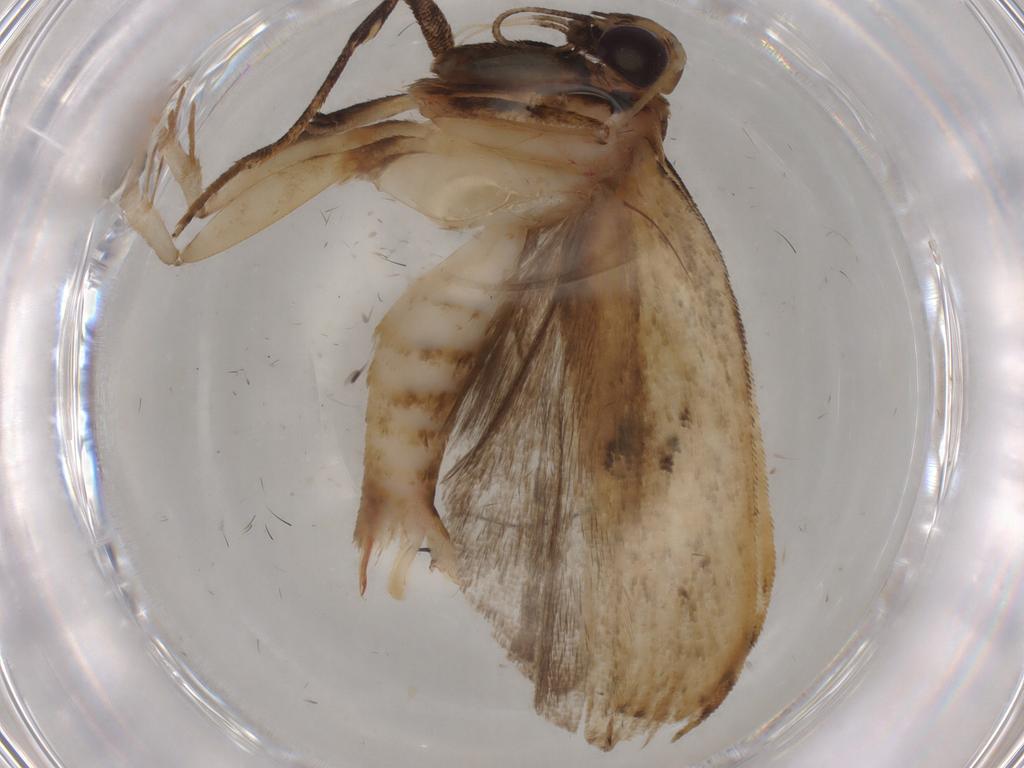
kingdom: Animalia
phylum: Arthropoda
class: Insecta
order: Lepidoptera
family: Gelechiidae
